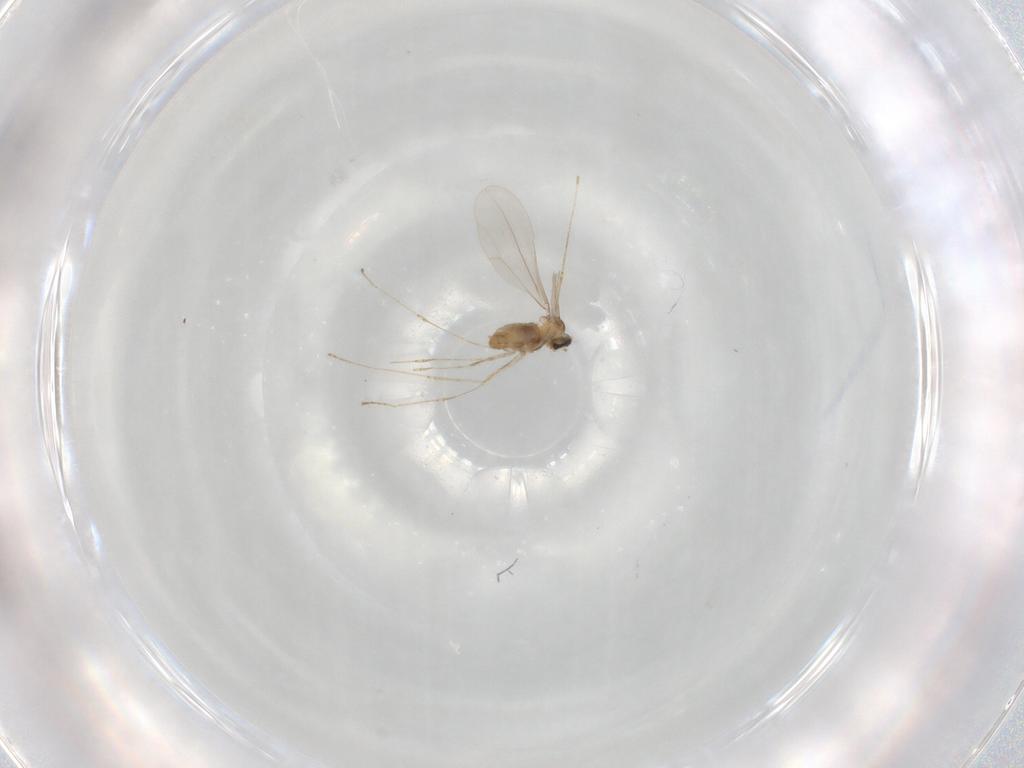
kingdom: Animalia
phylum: Arthropoda
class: Insecta
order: Diptera
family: Cecidomyiidae
